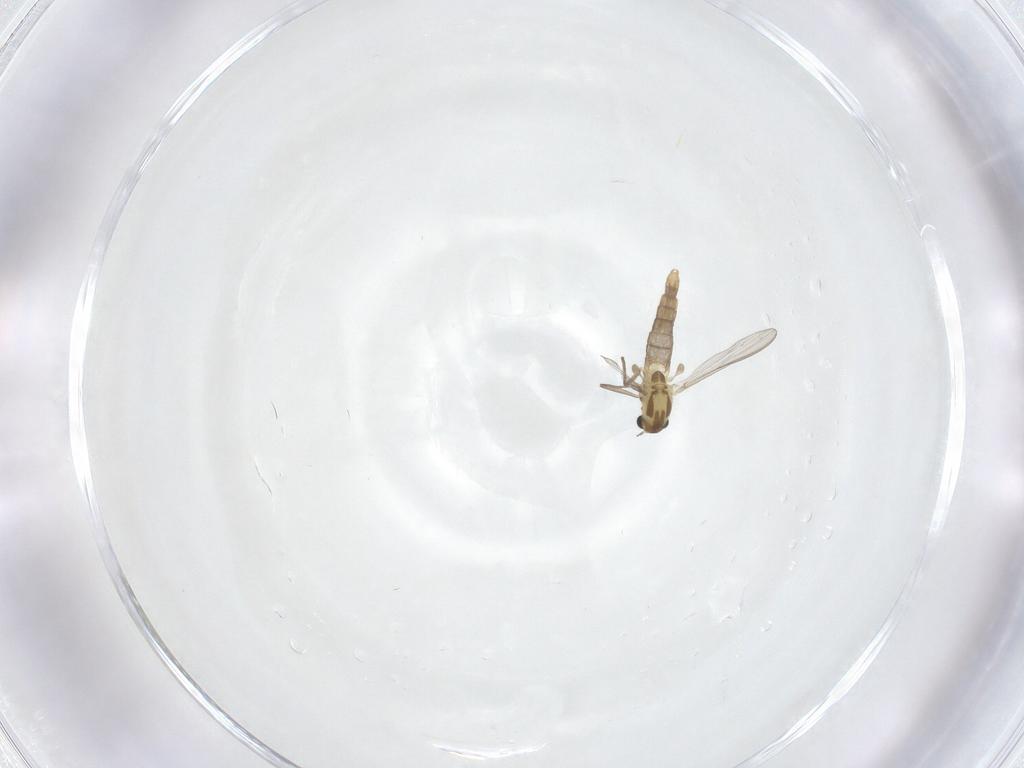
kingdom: Animalia
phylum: Arthropoda
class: Insecta
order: Diptera
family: Chironomidae
